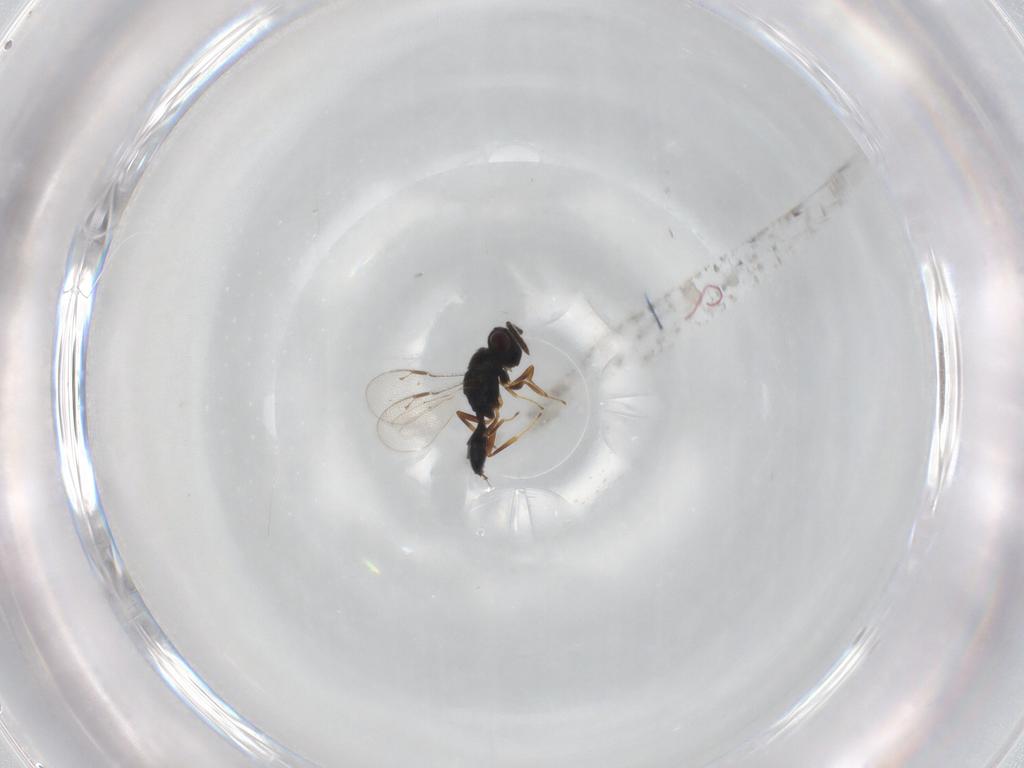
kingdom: Animalia
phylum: Arthropoda
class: Insecta
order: Hymenoptera
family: Pteromalidae
